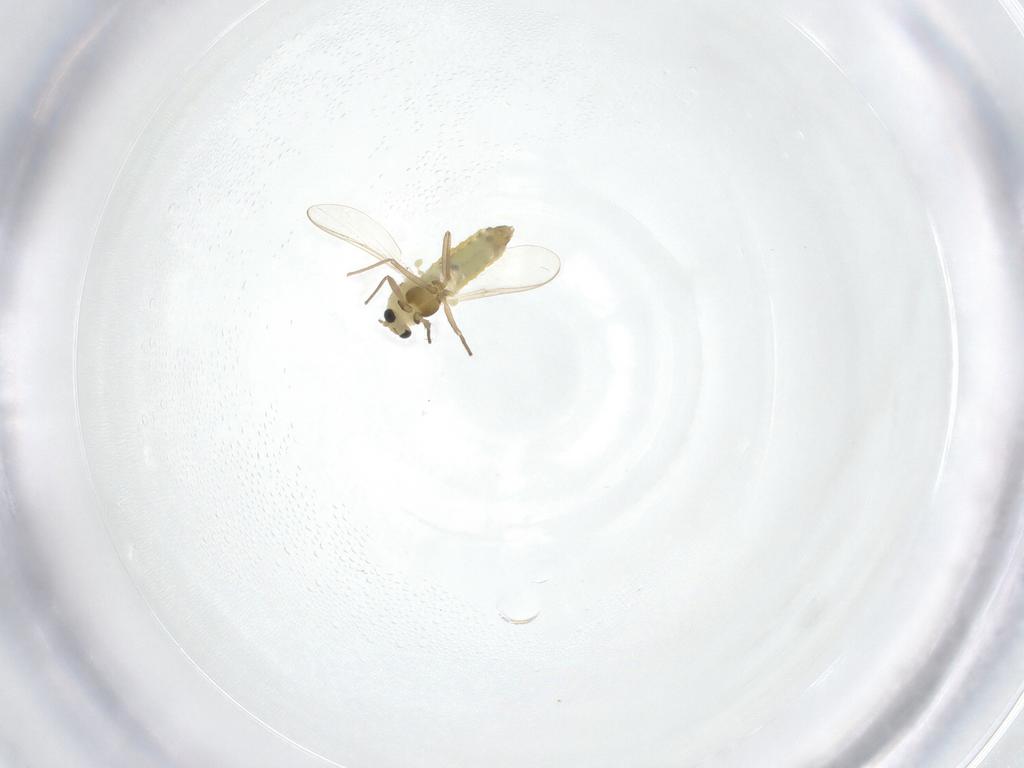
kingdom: Animalia
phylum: Arthropoda
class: Insecta
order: Diptera
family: Chironomidae
